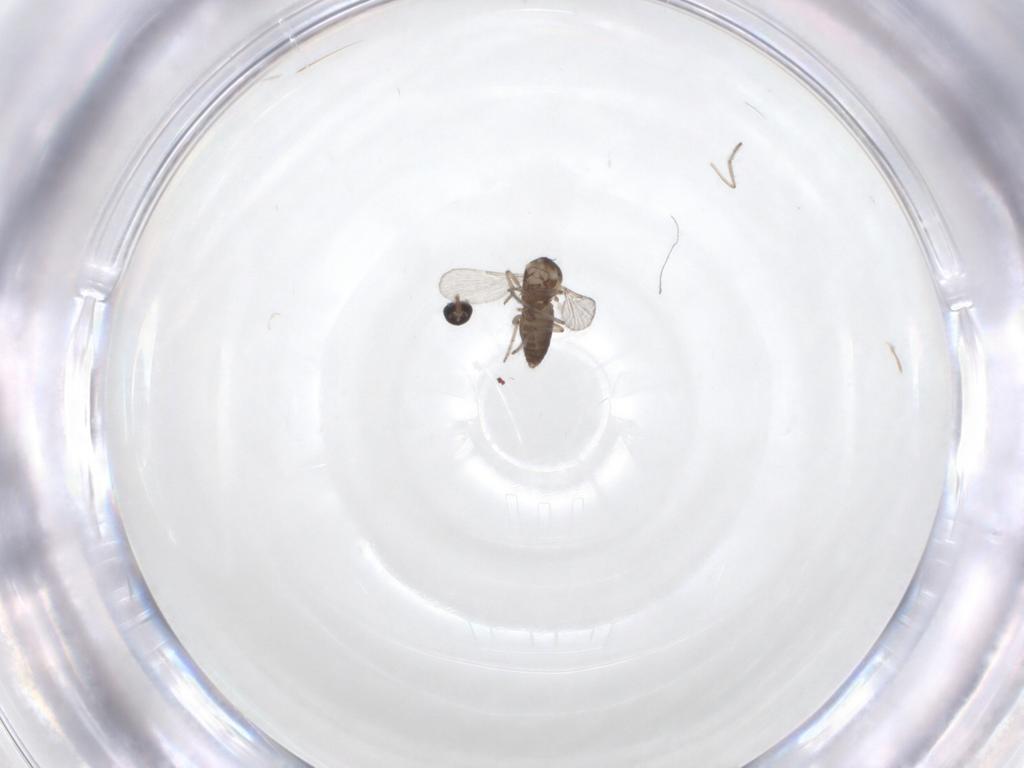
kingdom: Animalia
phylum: Arthropoda
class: Insecta
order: Diptera
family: Ceratopogonidae
